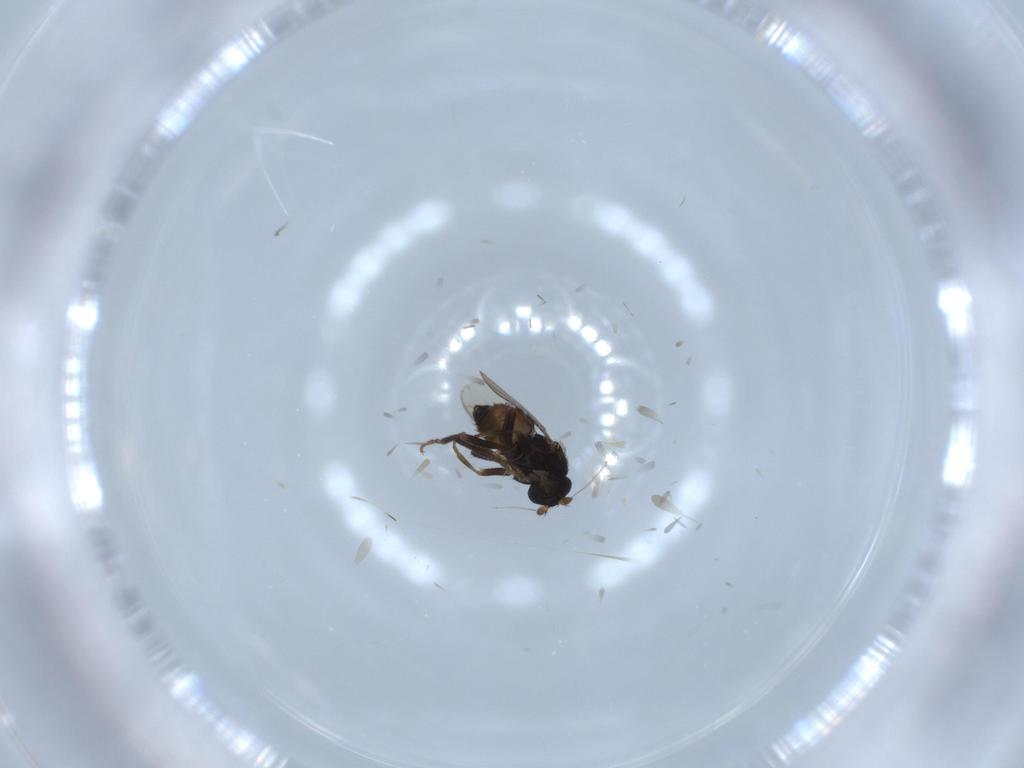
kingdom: Animalia
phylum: Arthropoda
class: Insecta
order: Diptera
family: Sphaeroceridae
